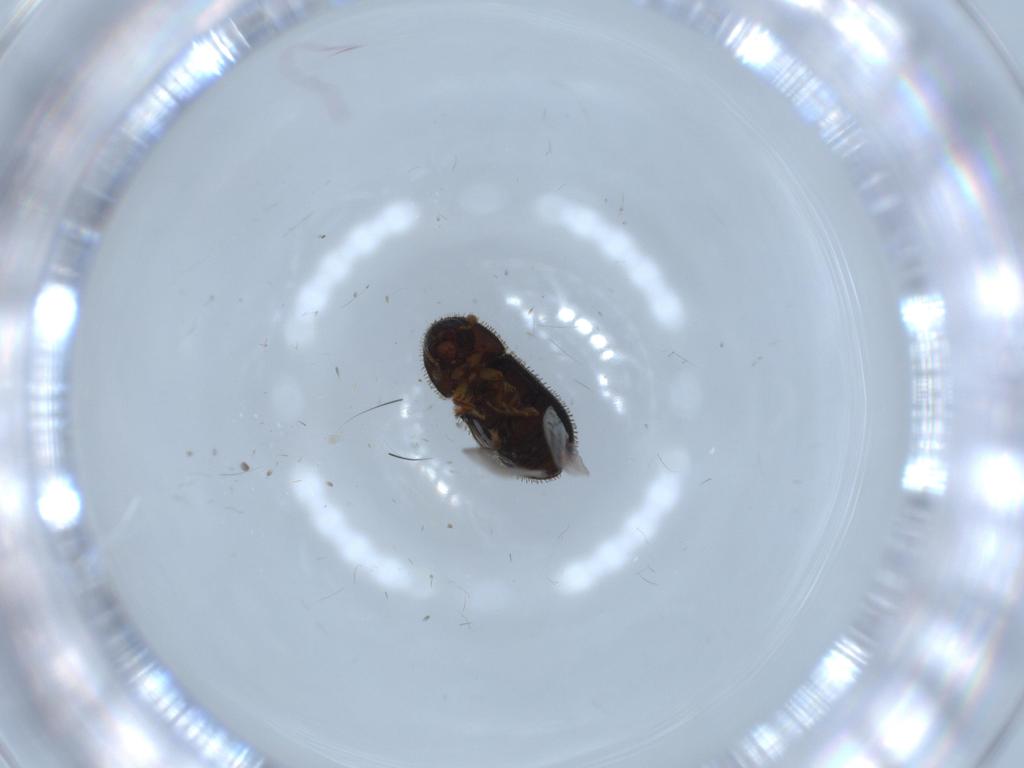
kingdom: Animalia
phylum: Arthropoda
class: Insecta
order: Coleoptera
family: Curculionidae
